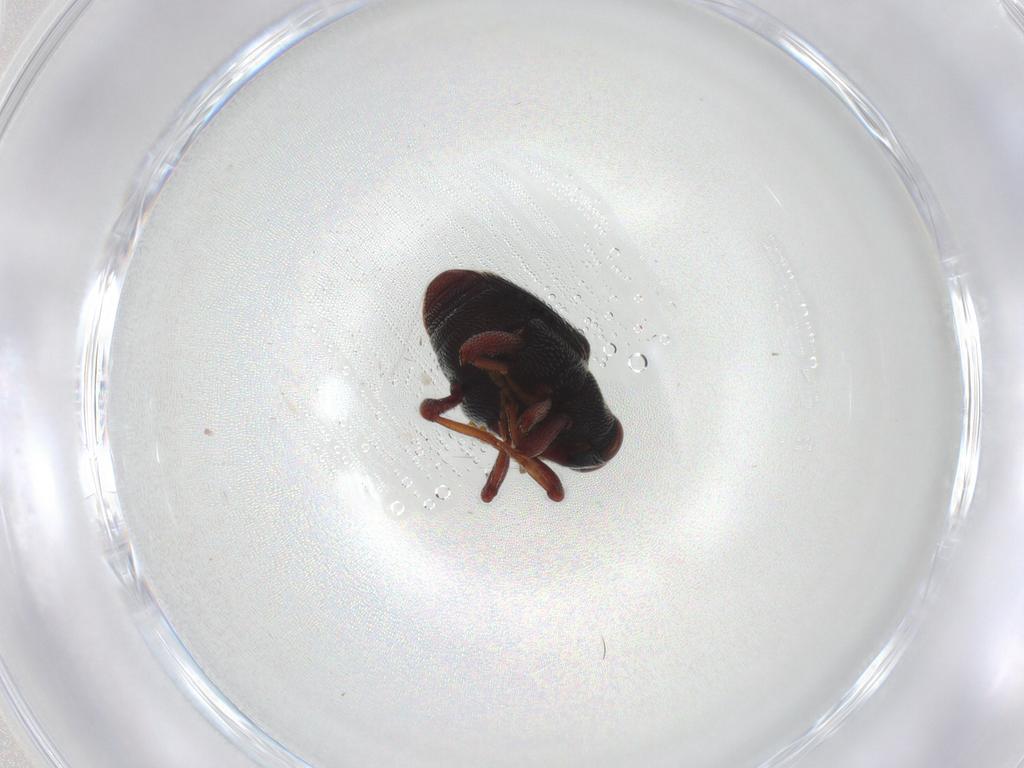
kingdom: Animalia
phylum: Arthropoda
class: Insecta
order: Coleoptera
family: Curculionidae
